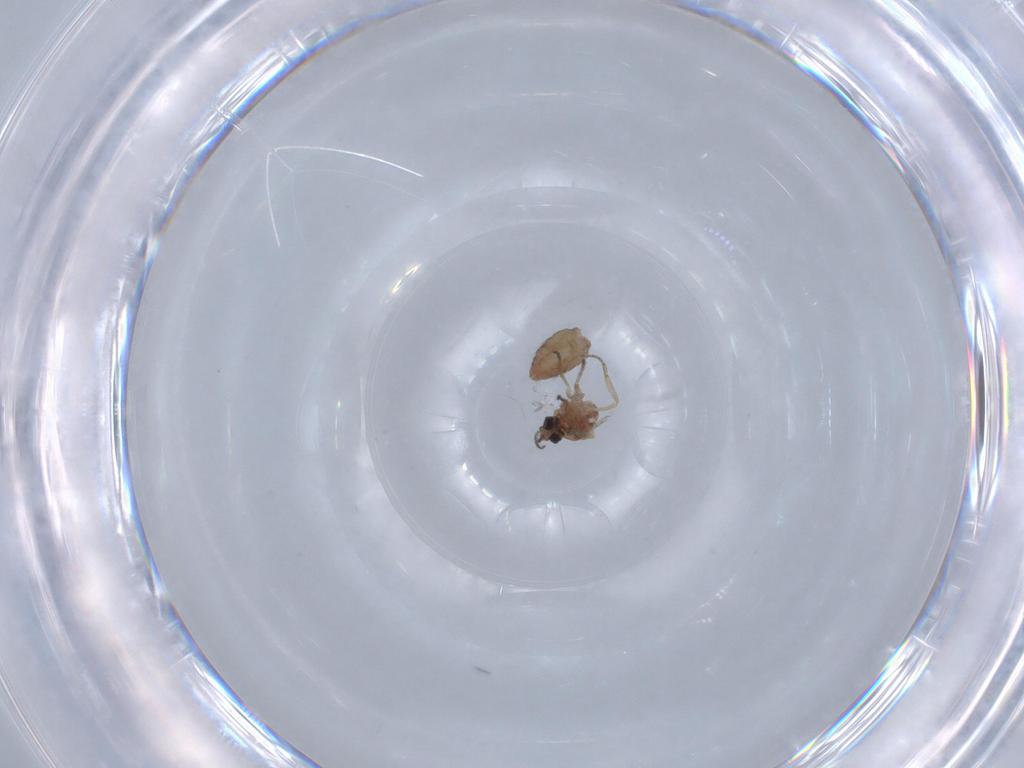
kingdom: Animalia
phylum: Arthropoda
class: Insecta
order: Diptera
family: Ceratopogonidae
